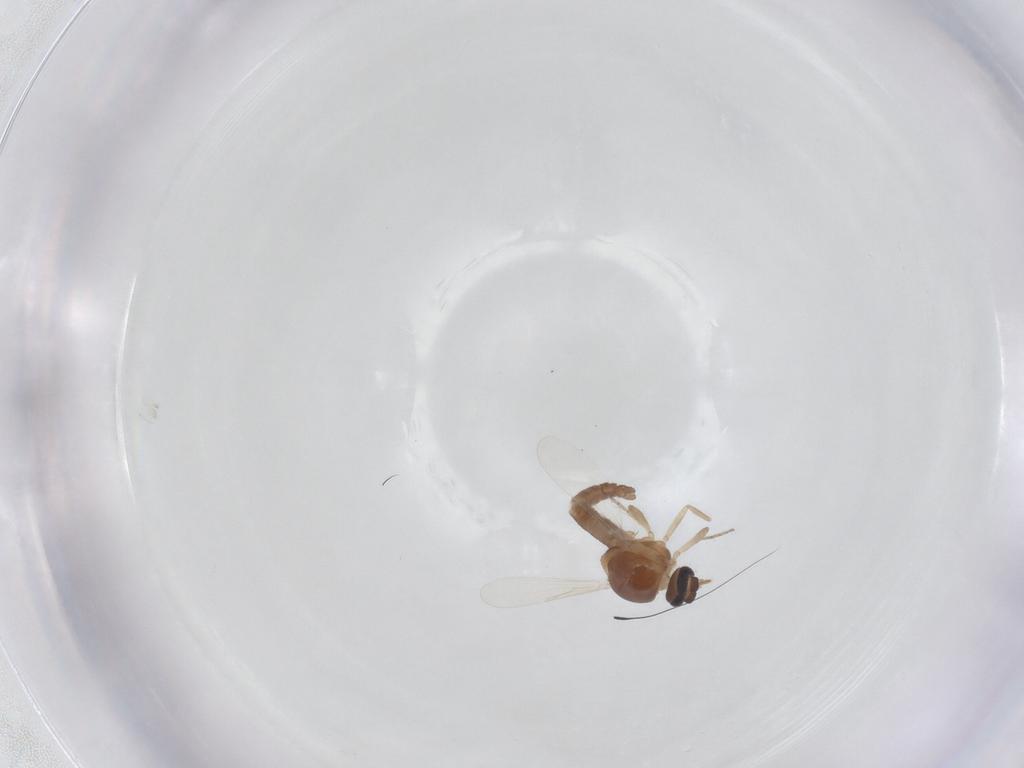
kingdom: Animalia
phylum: Arthropoda
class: Insecta
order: Diptera
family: Ceratopogonidae
